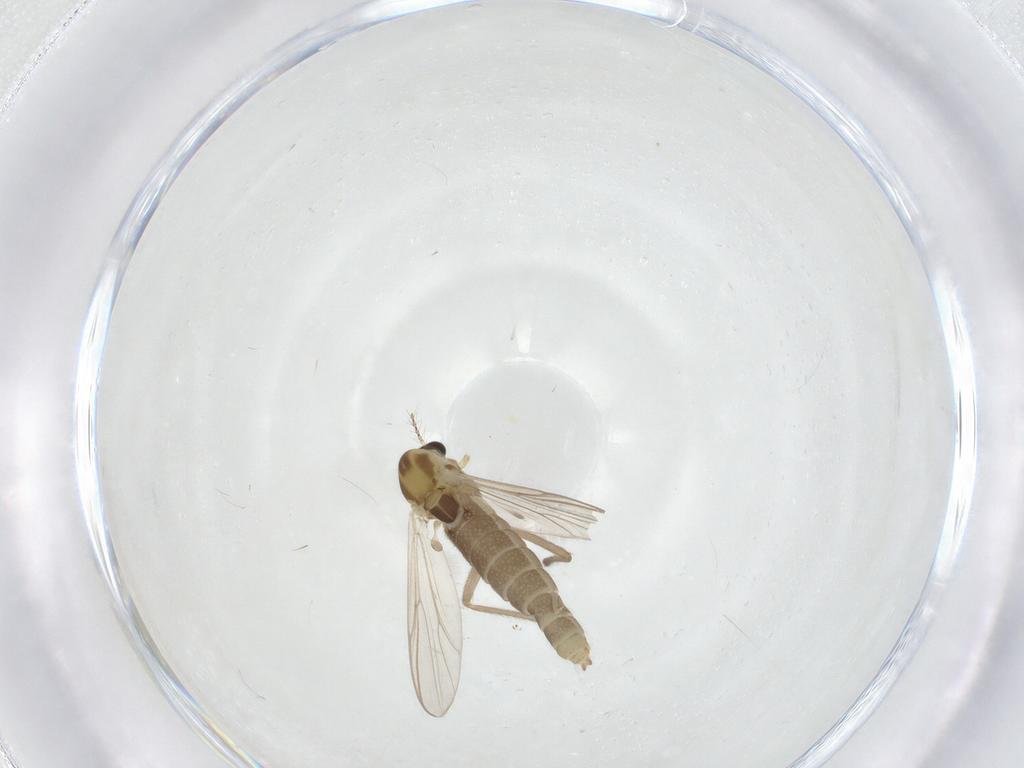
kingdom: Animalia
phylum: Arthropoda
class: Insecta
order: Diptera
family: Chironomidae
